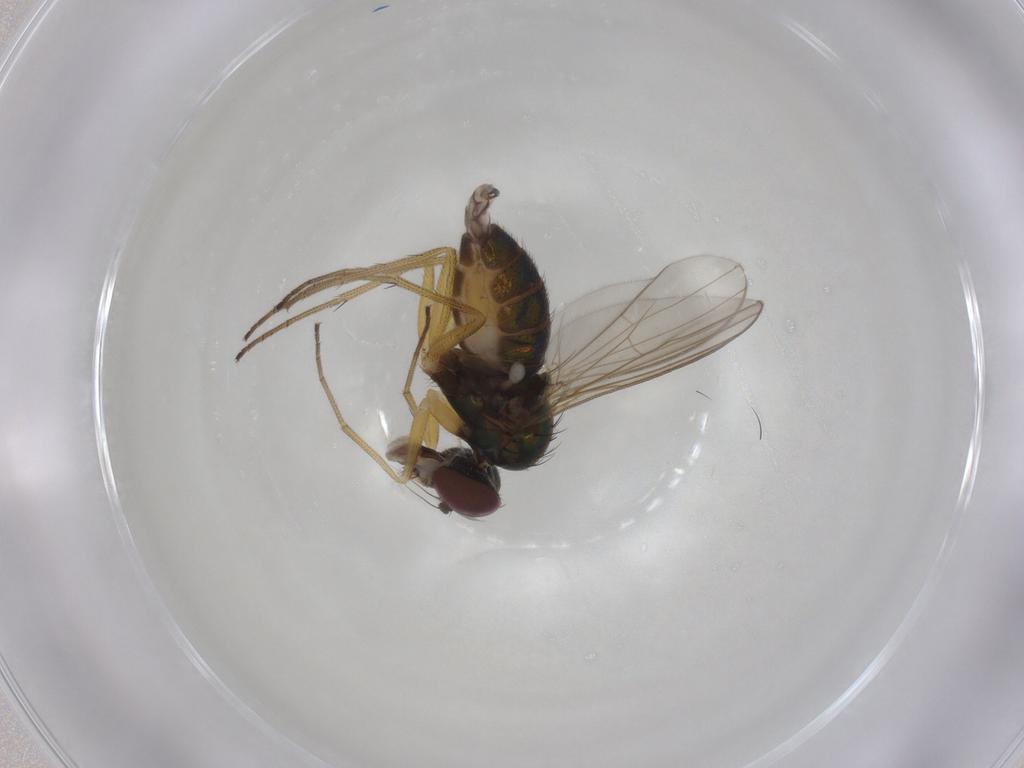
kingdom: Animalia
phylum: Arthropoda
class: Insecta
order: Diptera
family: Dolichopodidae
